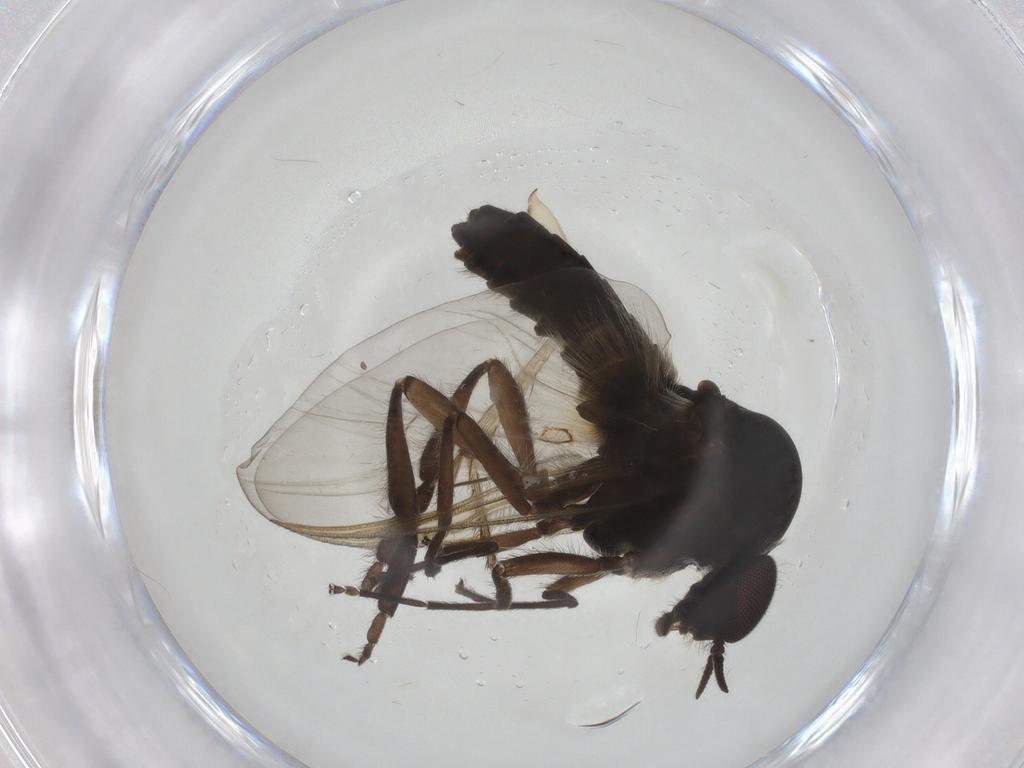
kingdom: Animalia
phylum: Arthropoda
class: Insecta
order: Diptera
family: Simuliidae
